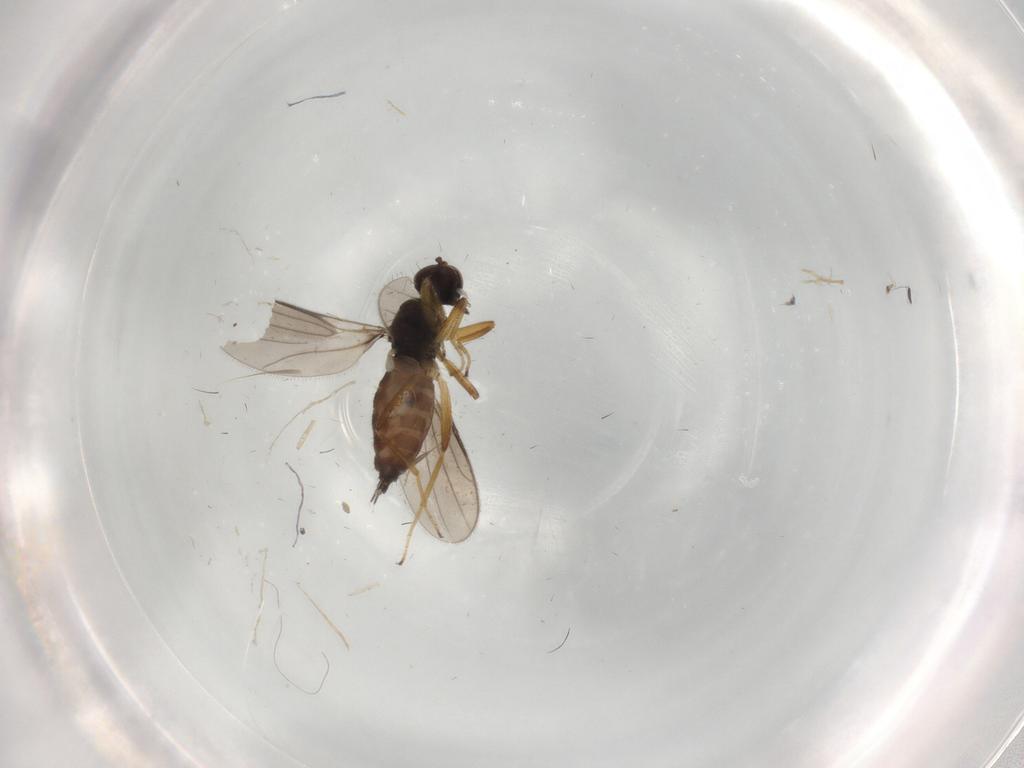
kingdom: Animalia
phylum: Arthropoda
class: Insecta
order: Diptera
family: Hybotidae
